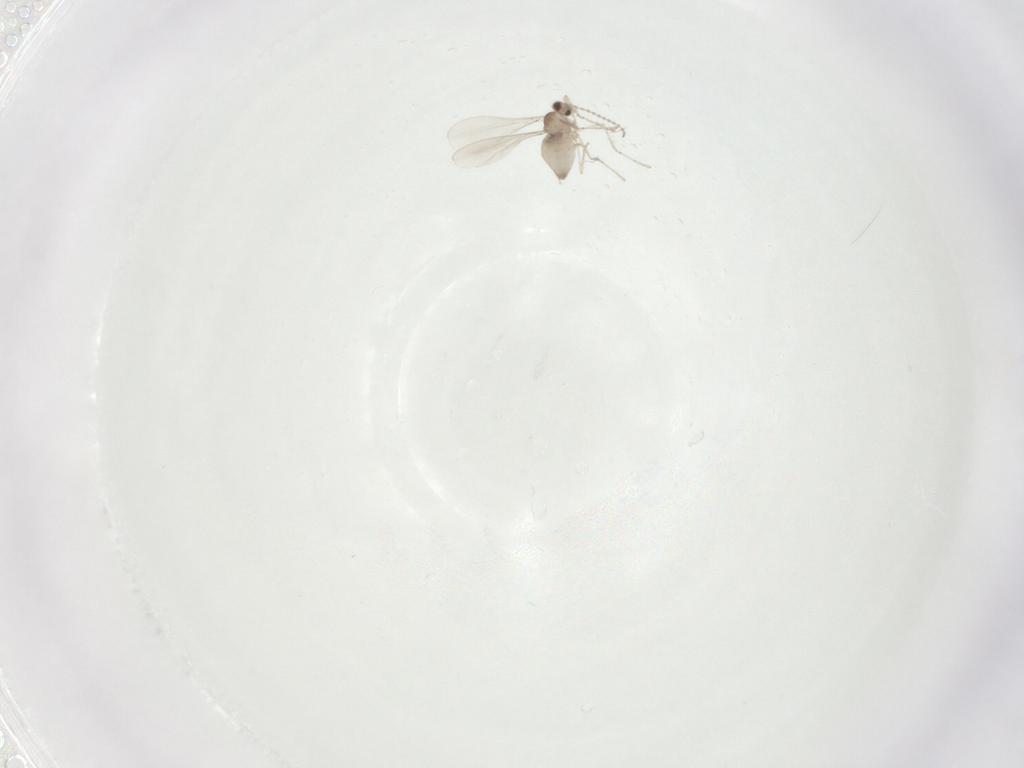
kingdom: Animalia
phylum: Arthropoda
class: Insecta
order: Diptera
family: Cecidomyiidae
